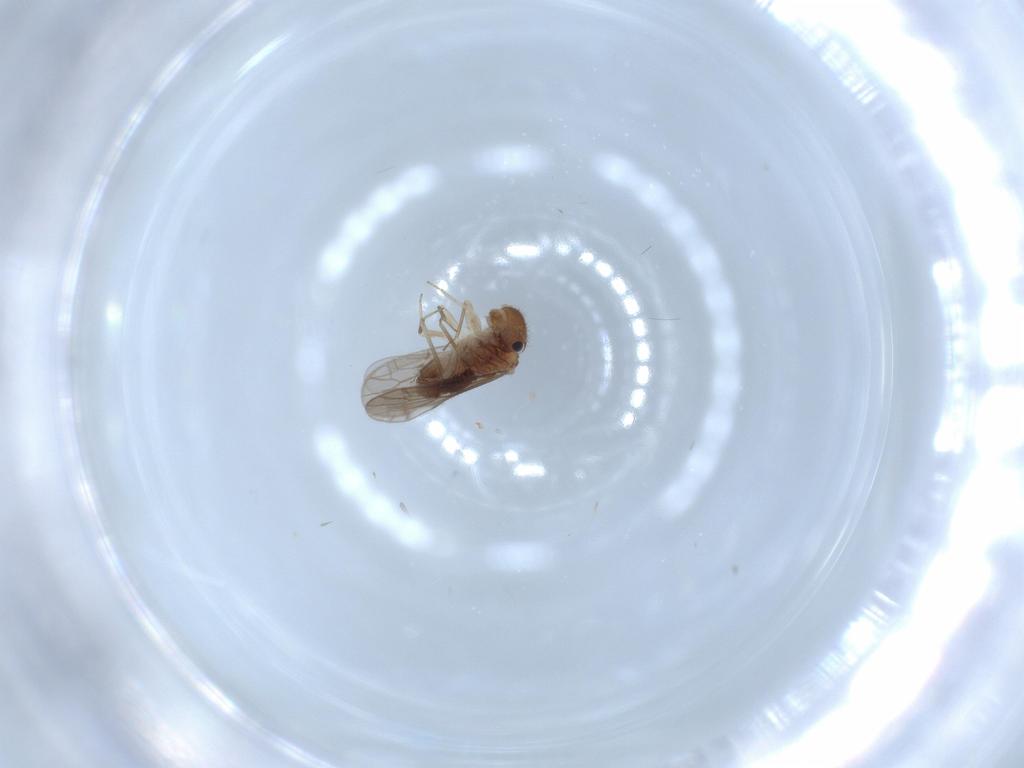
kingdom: Animalia
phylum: Arthropoda
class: Insecta
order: Psocodea
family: Ectopsocidae
